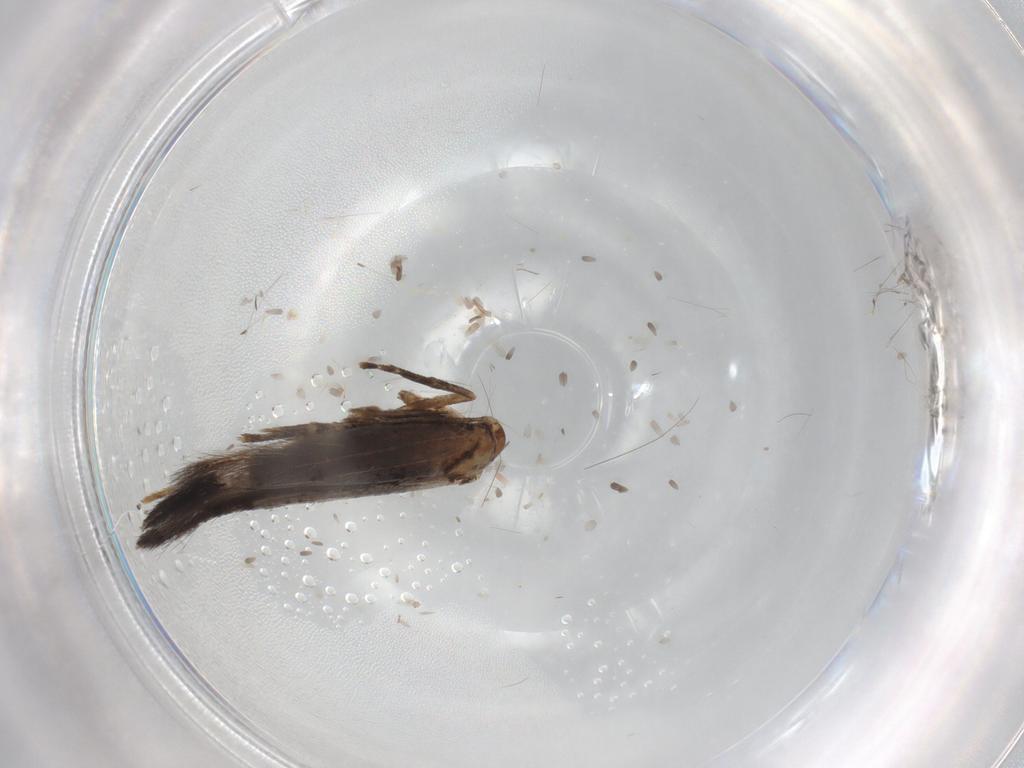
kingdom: Animalia
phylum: Arthropoda
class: Insecta
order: Lepidoptera
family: Cosmopterigidae
